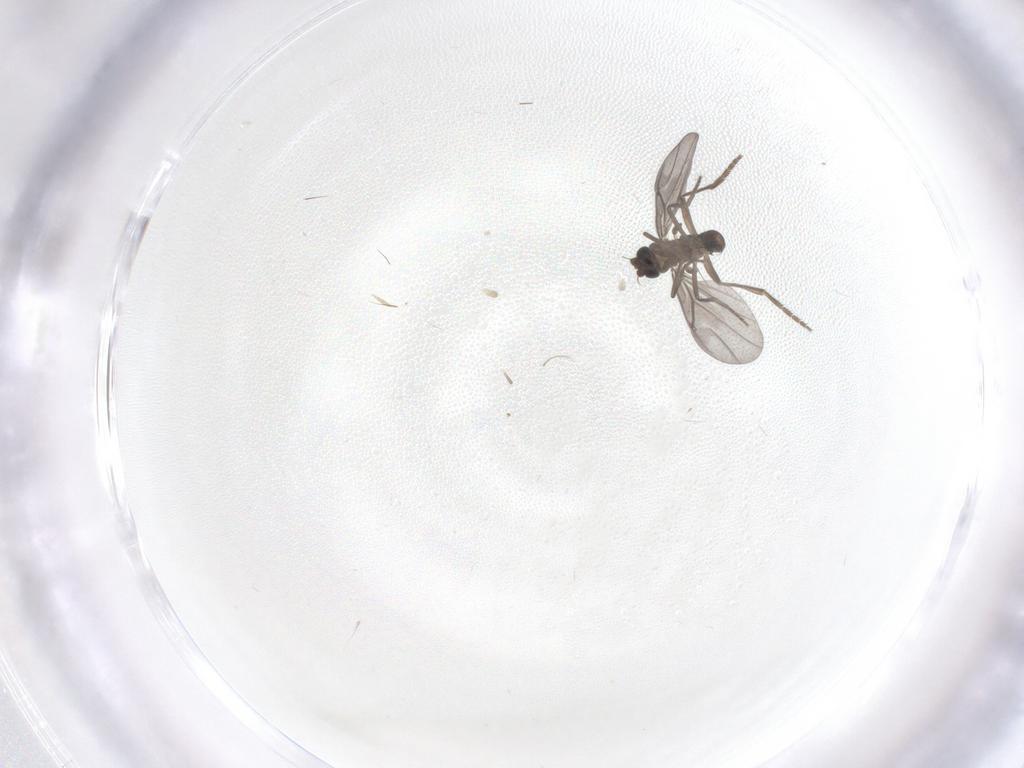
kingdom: Animalia
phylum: Arthropoda
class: Insecta
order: Diptera
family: Phoridae
